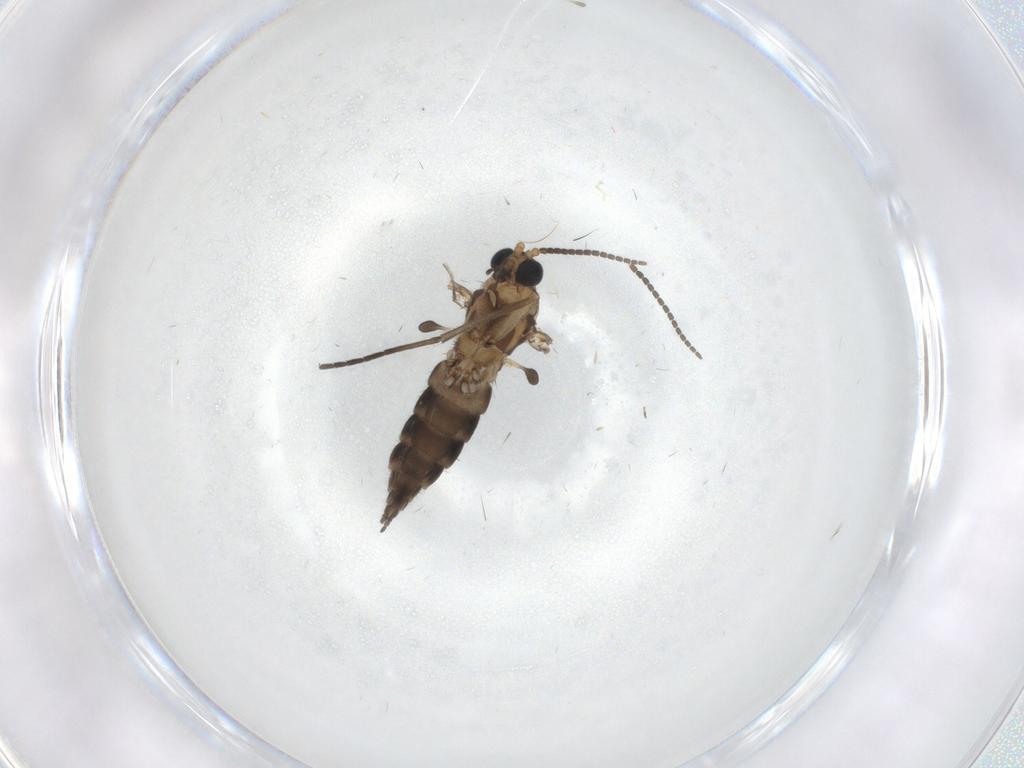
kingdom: Animalia
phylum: Arthropoda
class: Insecta
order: Diptera
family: Sciaridae
